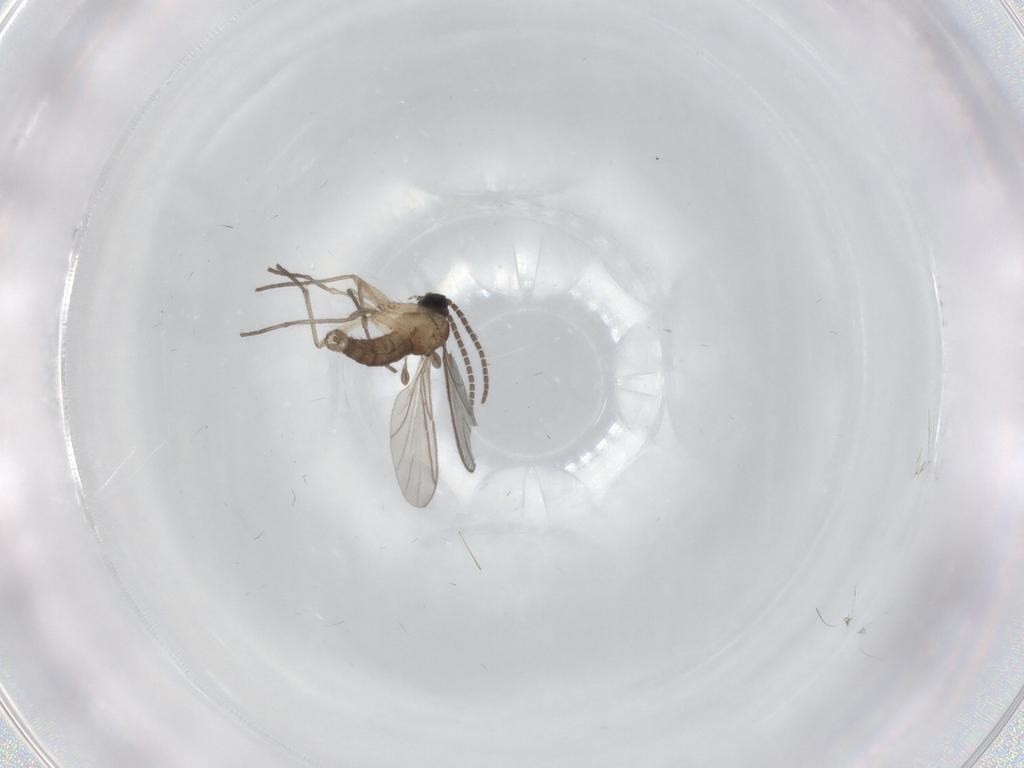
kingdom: Animalia
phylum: Arthropoda
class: Insecta
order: Diptera
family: Sciaridae
